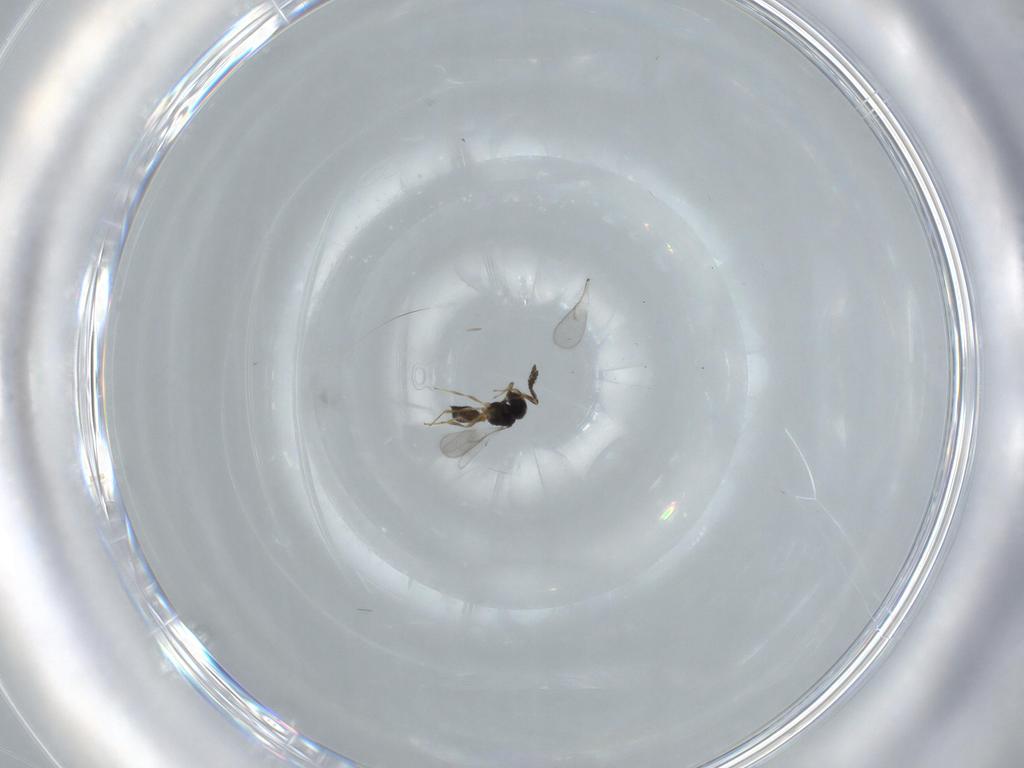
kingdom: Animalia
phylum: Arthropoda
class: Insecta
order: Hymenoptera
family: Scelionidae
